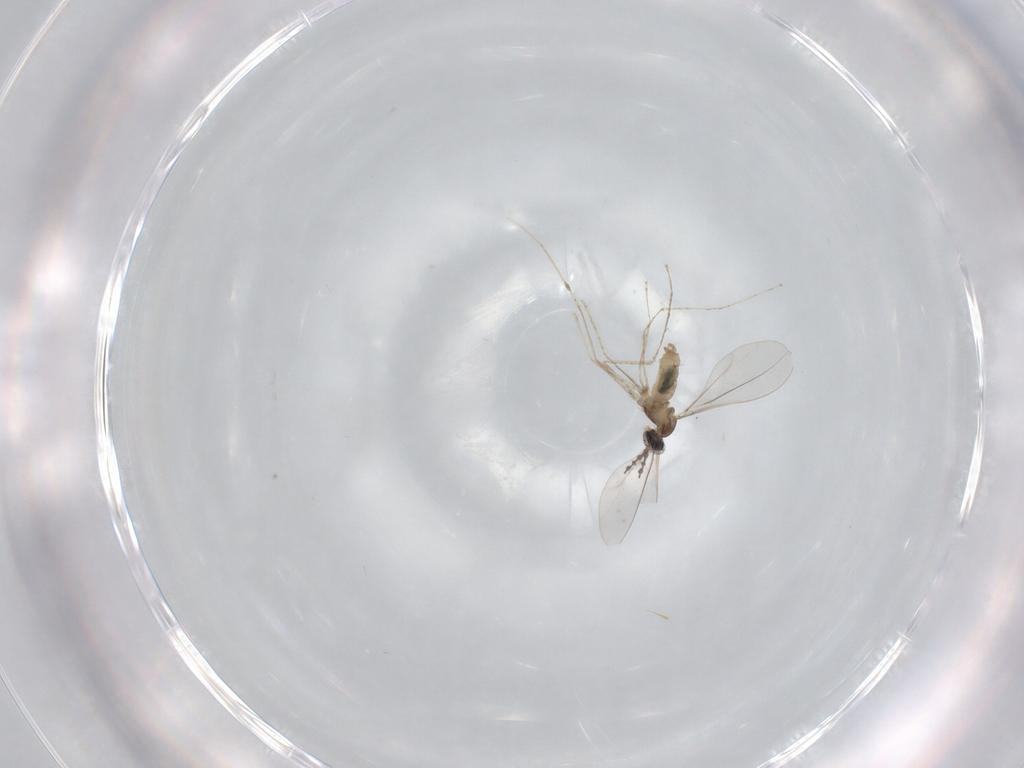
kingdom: Animalia
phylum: Arthropoda
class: Insecta
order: Diptera
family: Cecidomyiidae
